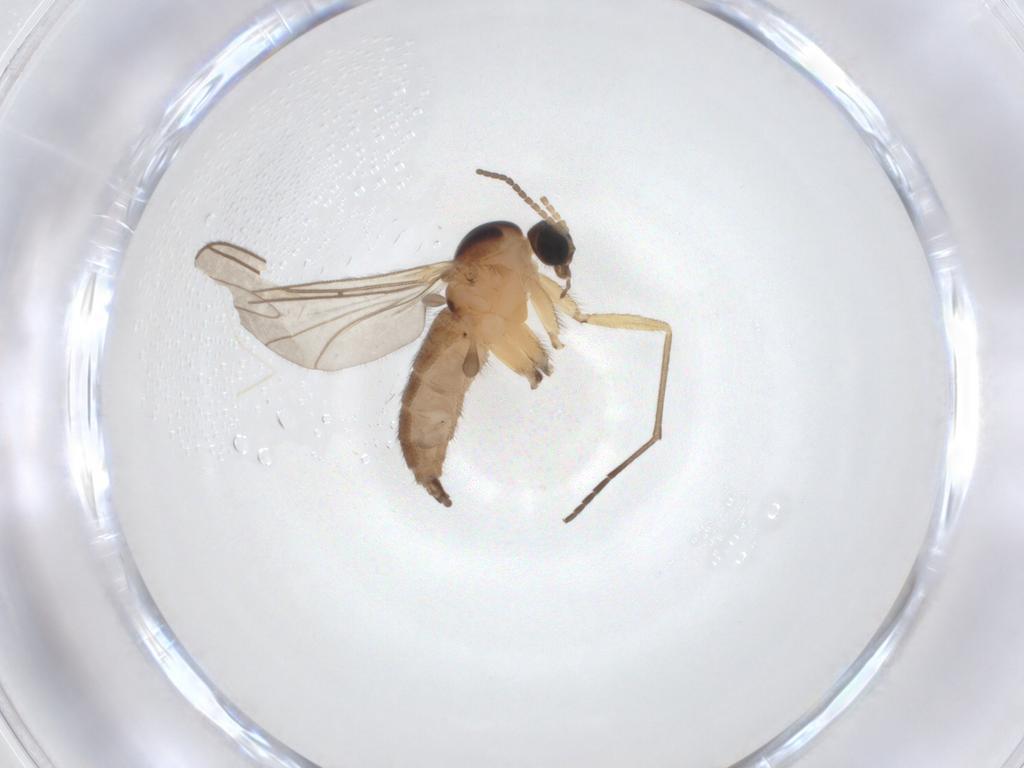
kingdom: Animalia
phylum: Arthropoda
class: Insecta
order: Diptera
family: Sciaridae
